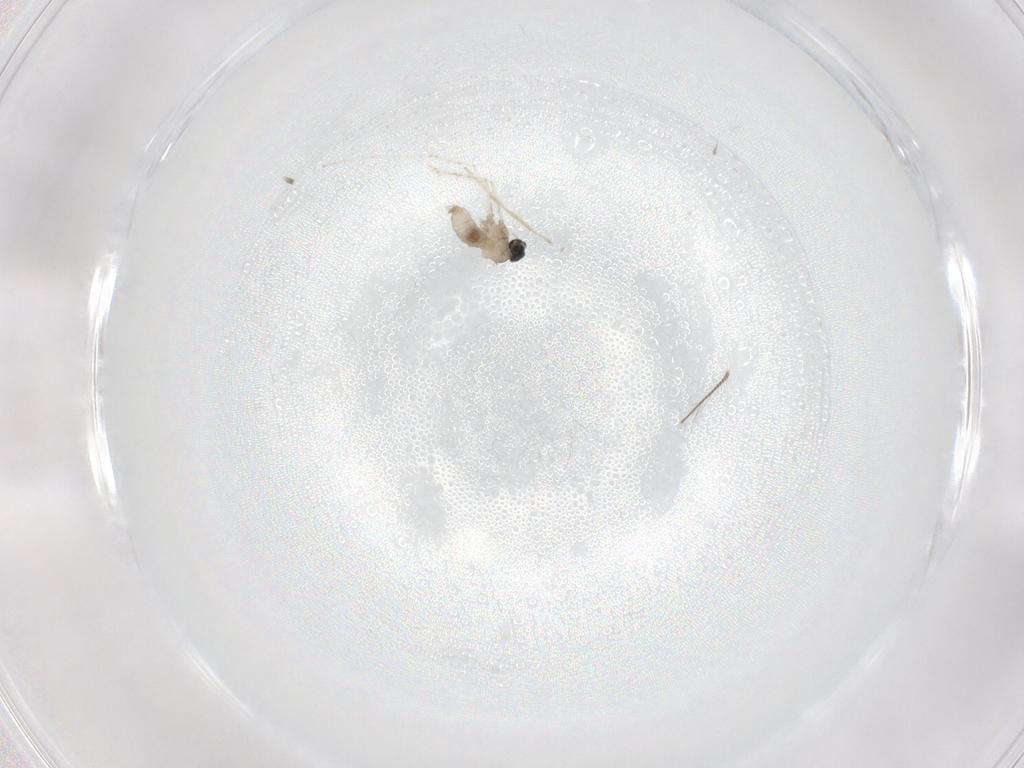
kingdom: Animalia
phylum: Arthropoda
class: Insecta
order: Diptera
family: Cecidomyiidae
